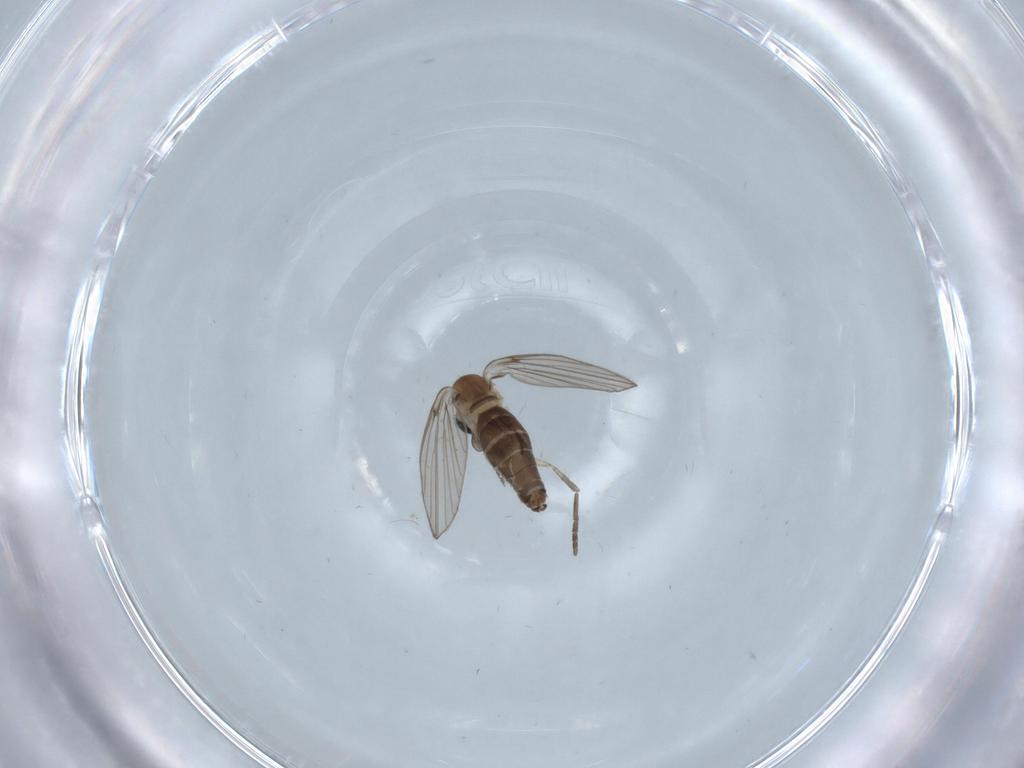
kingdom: Animalia
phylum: Arthropoda
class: Insecta
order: Diptera
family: Psychodidae
